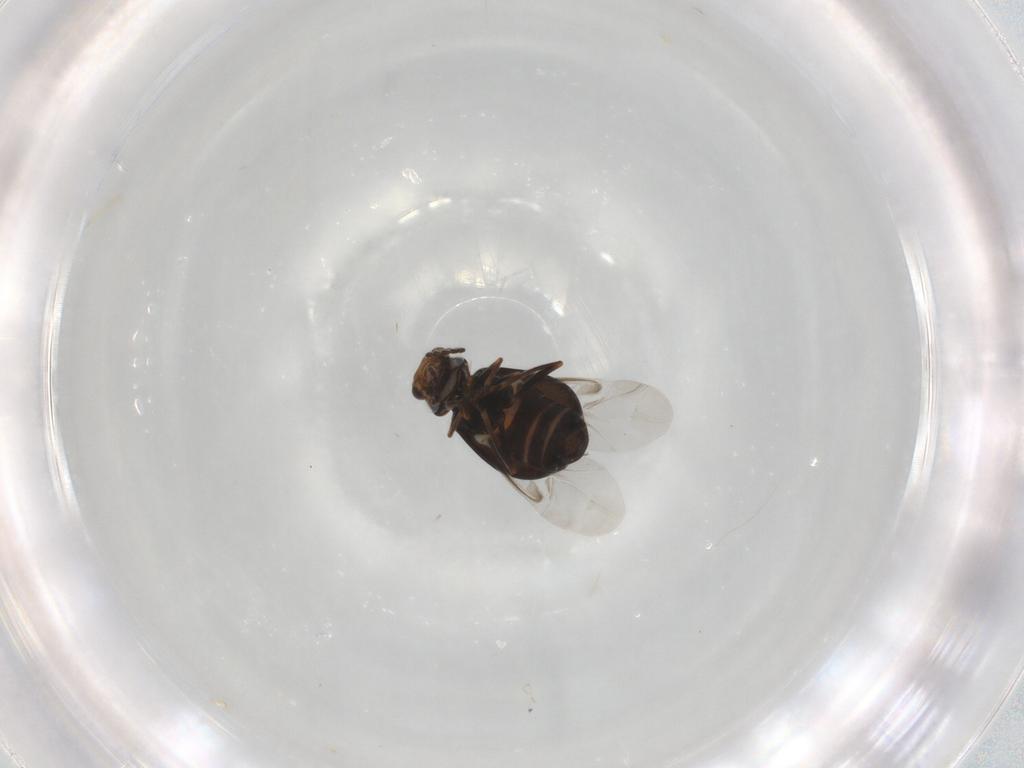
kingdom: Animalia
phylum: Arthropoda
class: Insecta
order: Coleoptera
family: Melyridae
